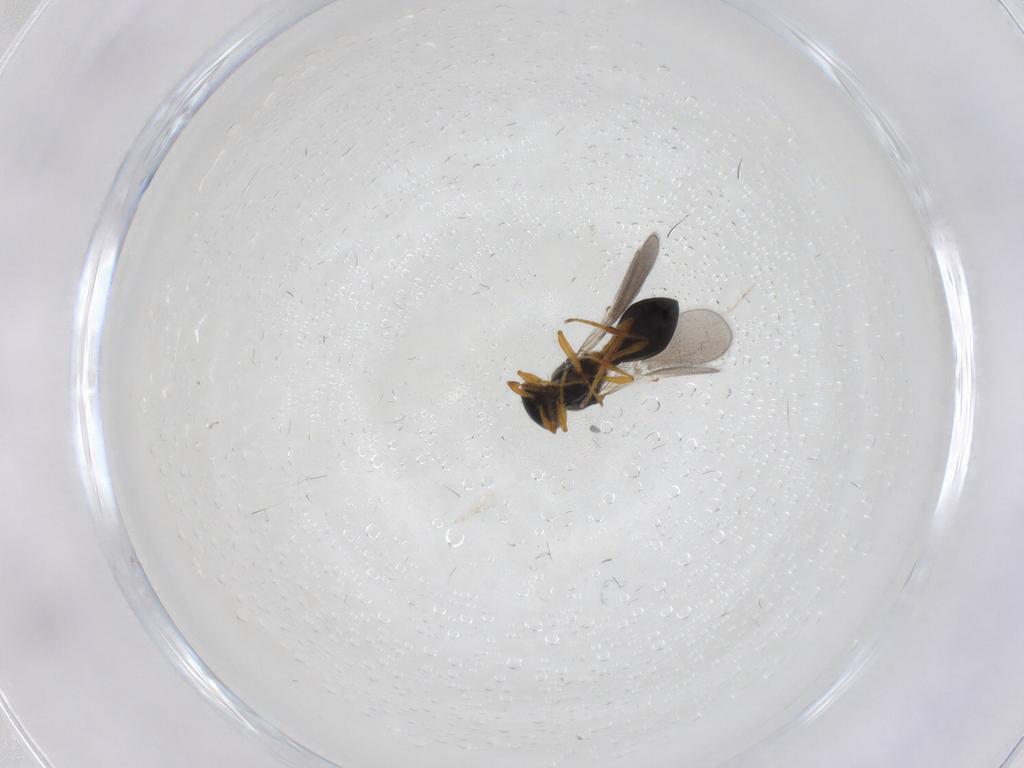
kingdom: Animalia
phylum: Arthropoda
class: Insecta
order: Hymenoptera
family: Platygastridae
